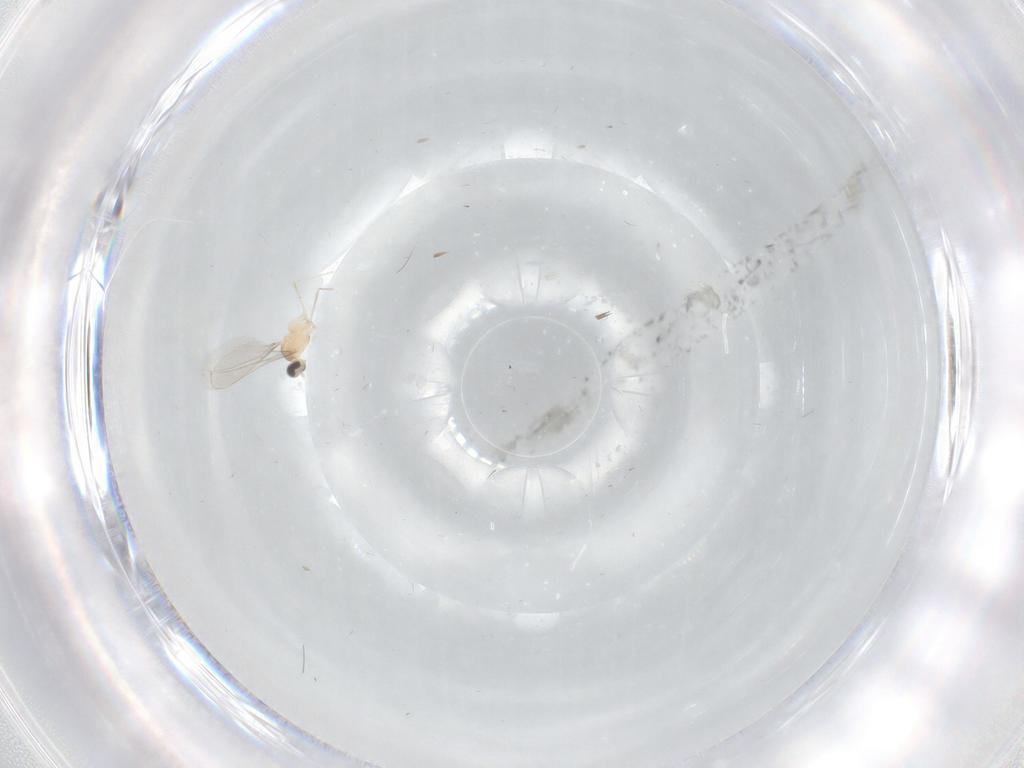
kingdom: Animalia
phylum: Arthropoda
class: Insecta
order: Diptera
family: Cecidomyiidae
